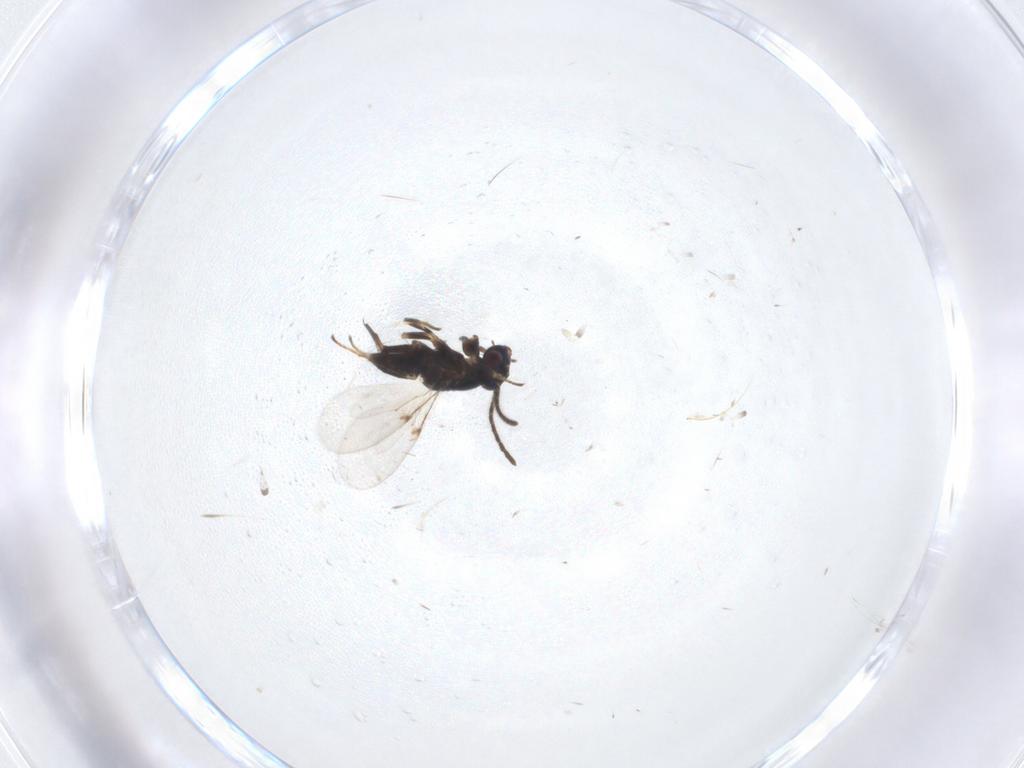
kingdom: Animalia
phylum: Arthropoda
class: Insecta
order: Hymenoptera
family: Encyrtidae
